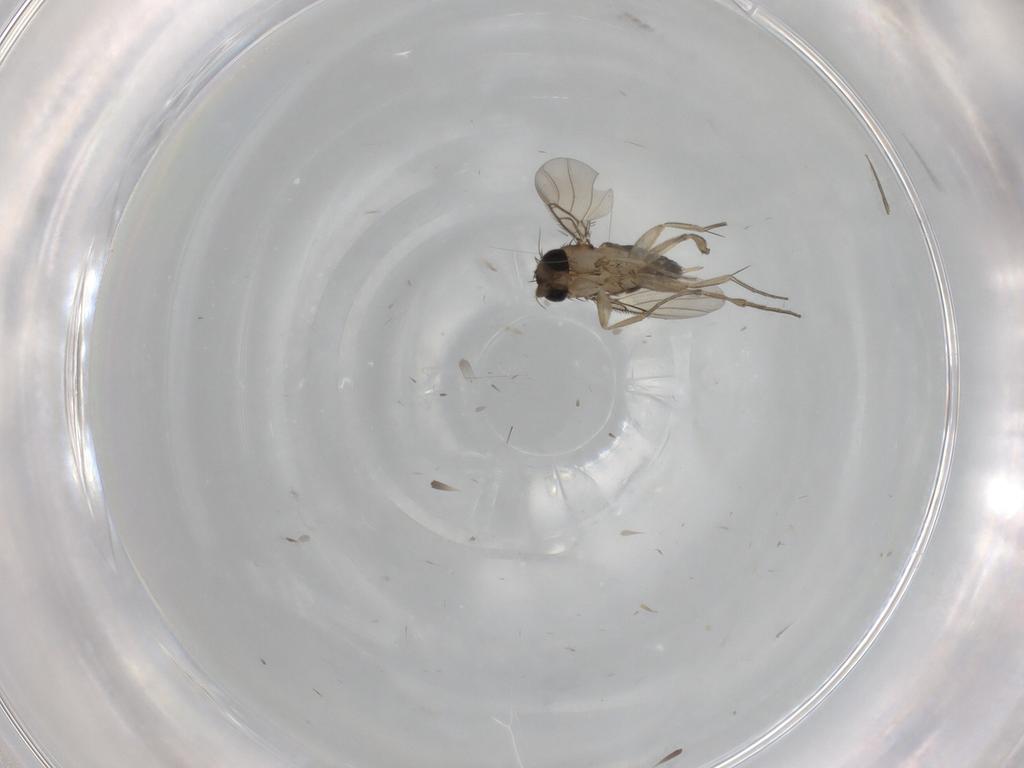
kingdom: Animalia
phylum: Arthropoda
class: Insecta
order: Diptera
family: Phoridae
